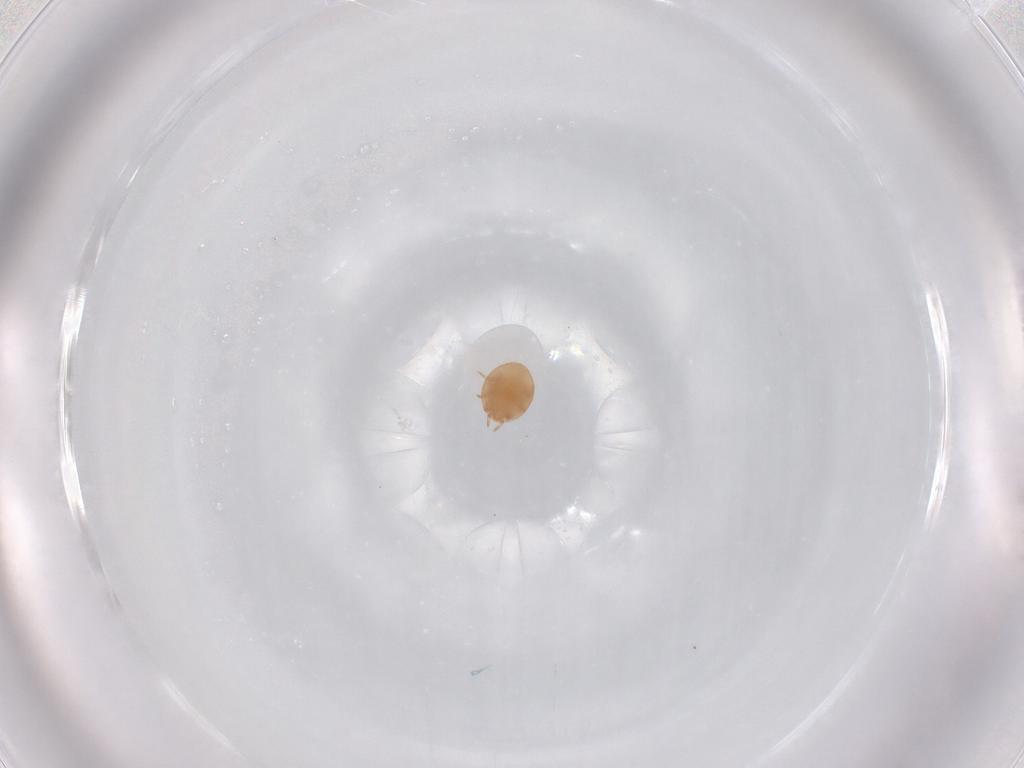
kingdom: Animalia
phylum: Arthropoda
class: Arachnida
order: Mesostigmata
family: Trematuridae
